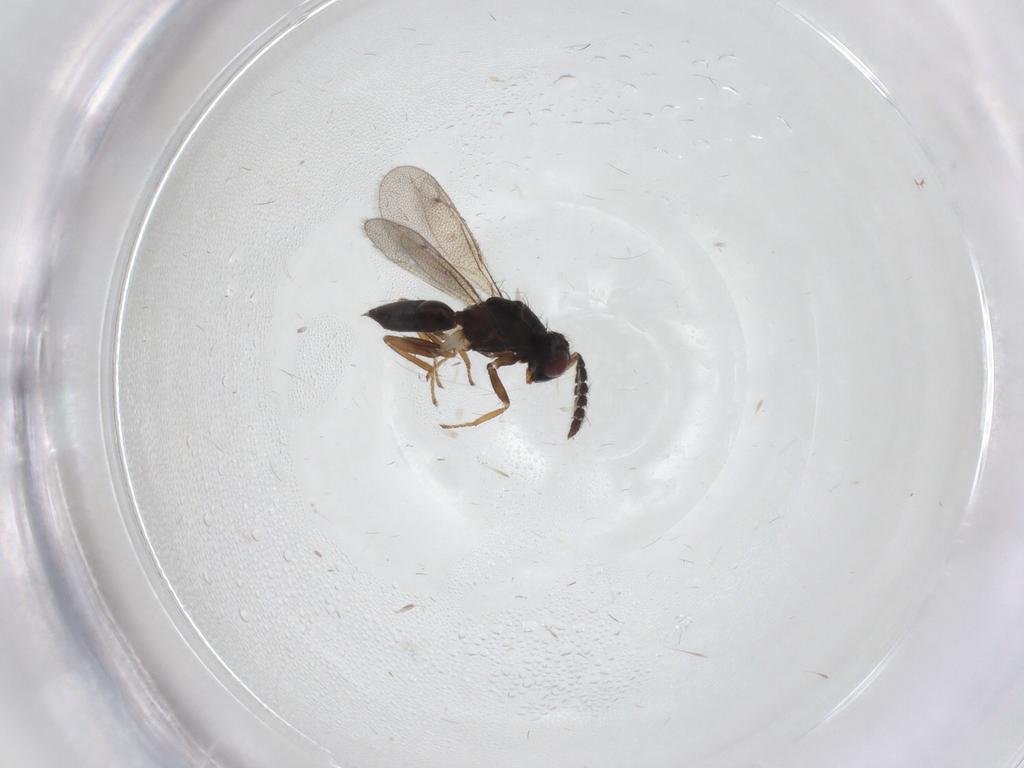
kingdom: Animalia
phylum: Arthropoda
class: Insecta
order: Hymenoptera
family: Eulophidae
